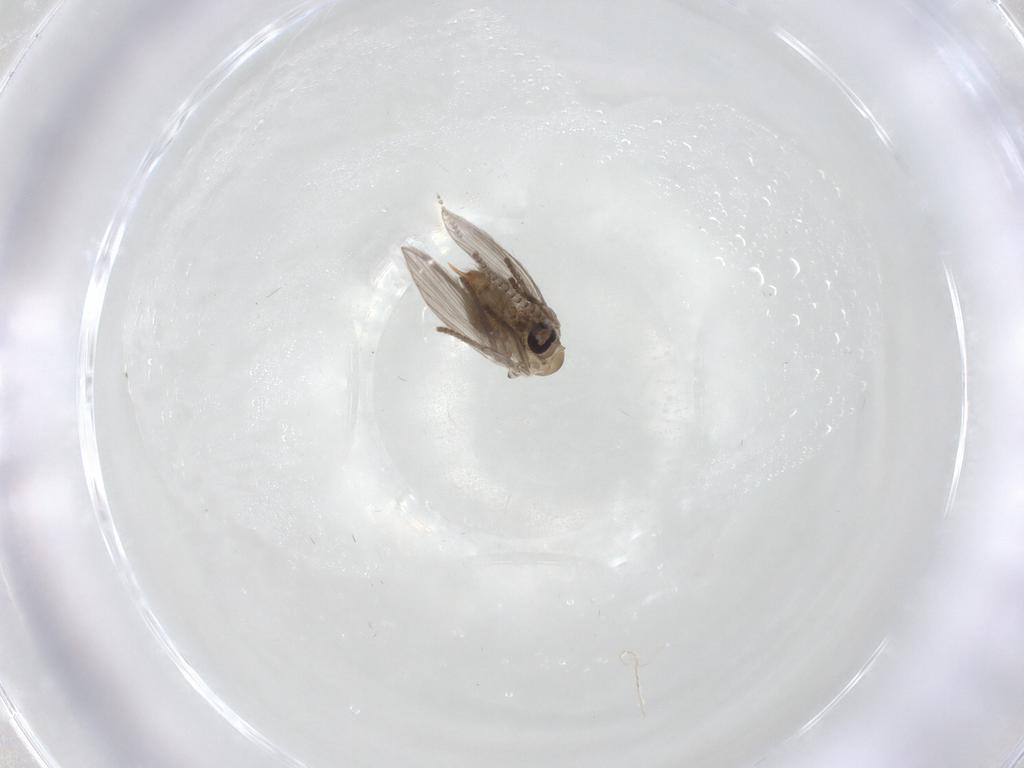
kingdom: Animalia
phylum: Arthropoda
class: Insecta
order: Diptera
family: Psychodidae
